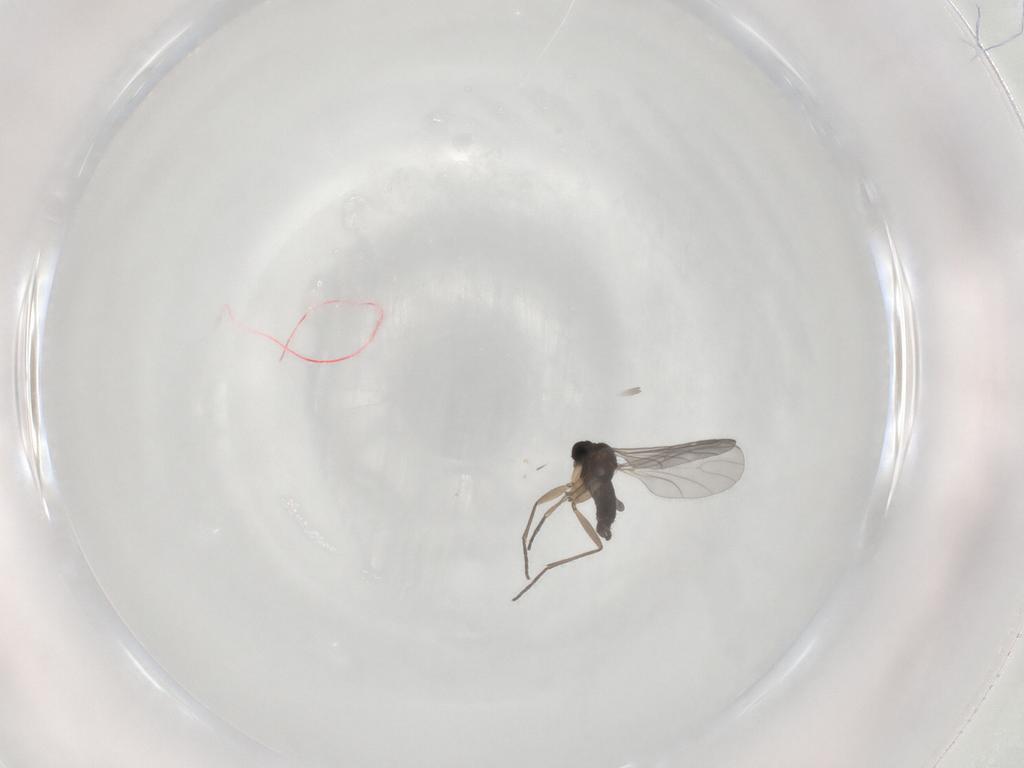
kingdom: Animalia
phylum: Arthropoda
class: Insecta
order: Diptera
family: Sciaridae
